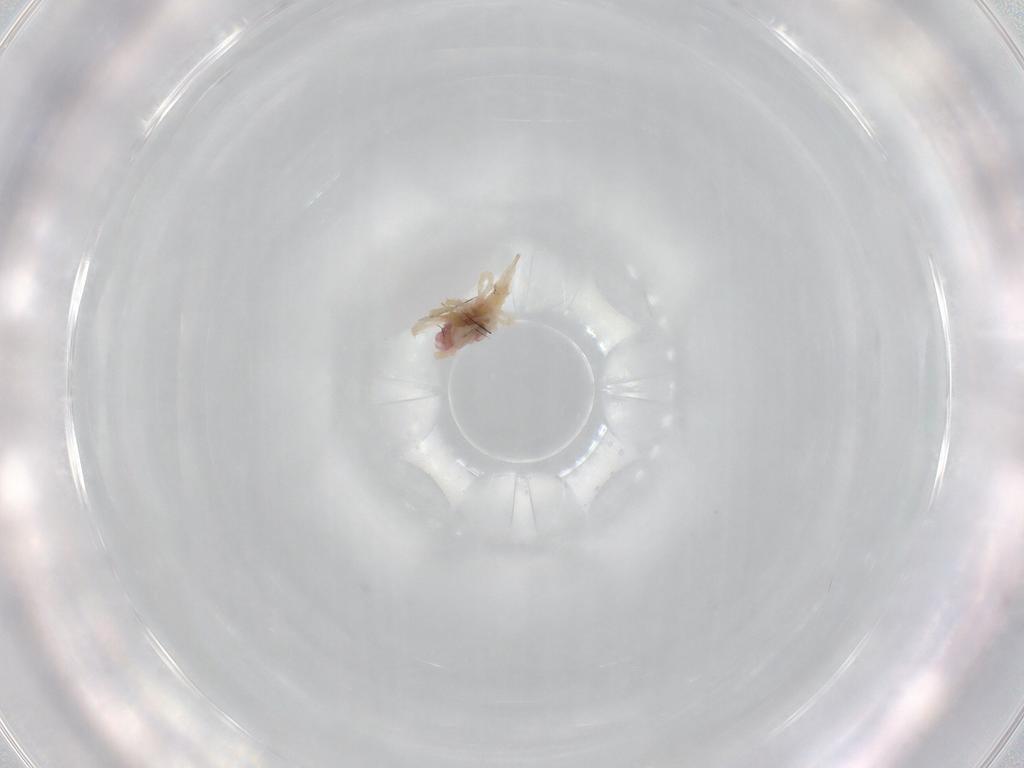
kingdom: Animalia
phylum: Arthropoda
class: Arachnida
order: Trombidiformes
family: Bdellidae
